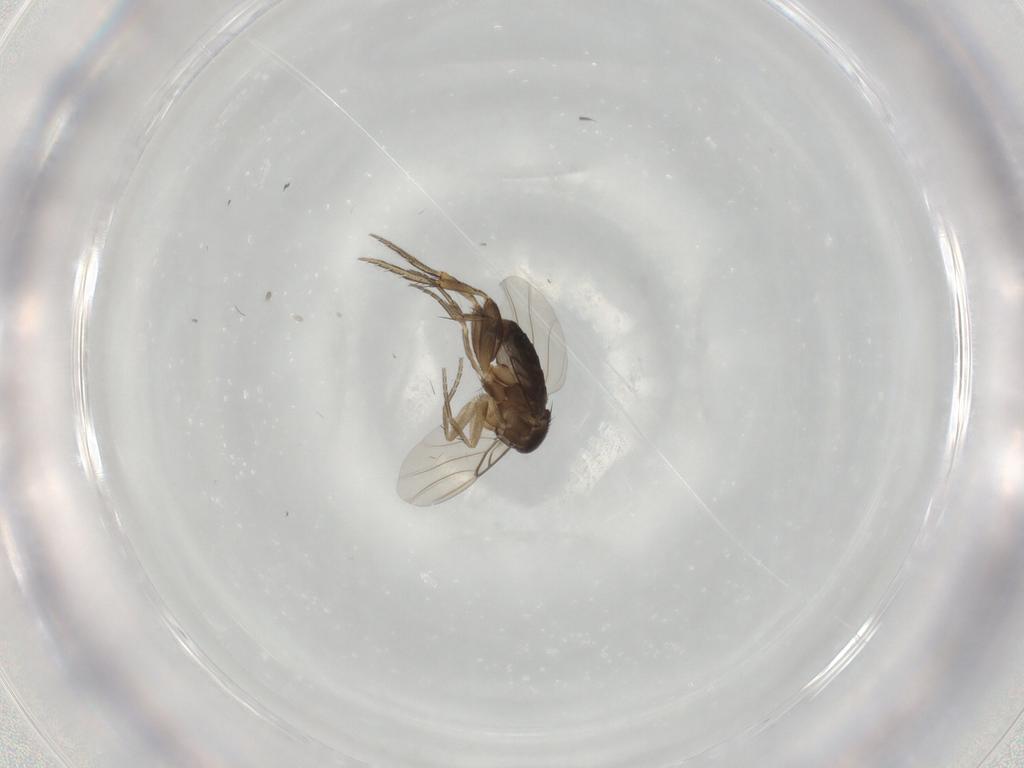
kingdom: Animalia
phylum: Arthropoda
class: Insecta
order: Diptera
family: Phoridae
